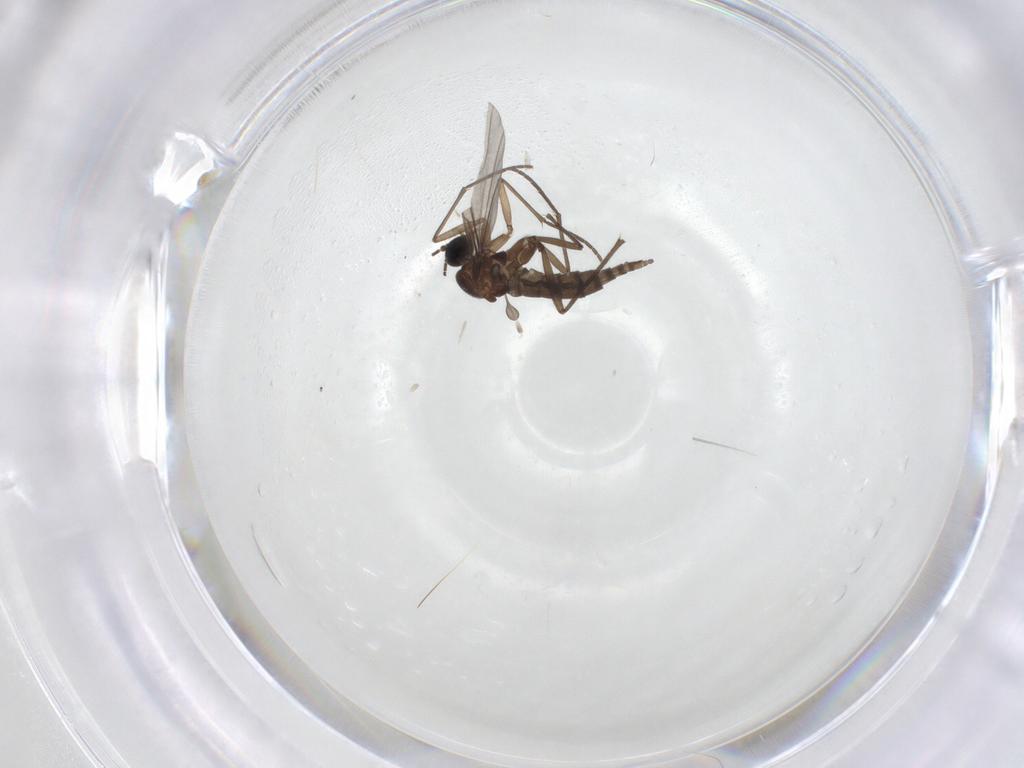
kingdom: Animalia
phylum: Arthropoda
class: Insecta
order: Diptera
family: Sciaridae
